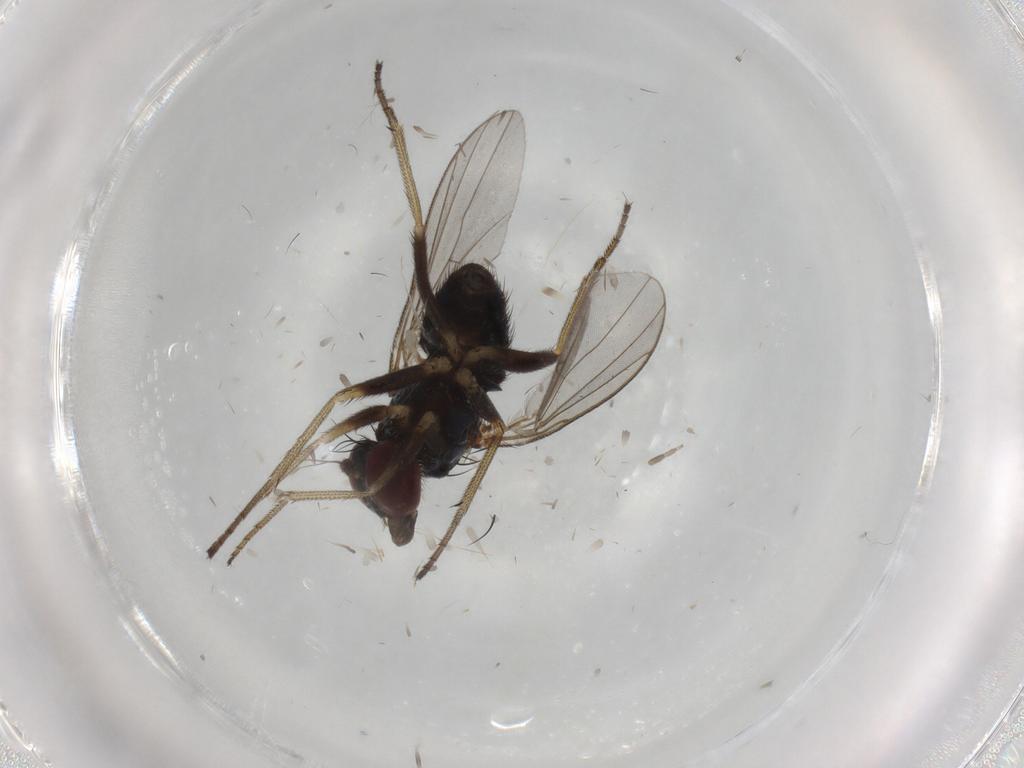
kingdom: Animalia
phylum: Arthropoda
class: Insecta
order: Diptera
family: Dolichopodidae
